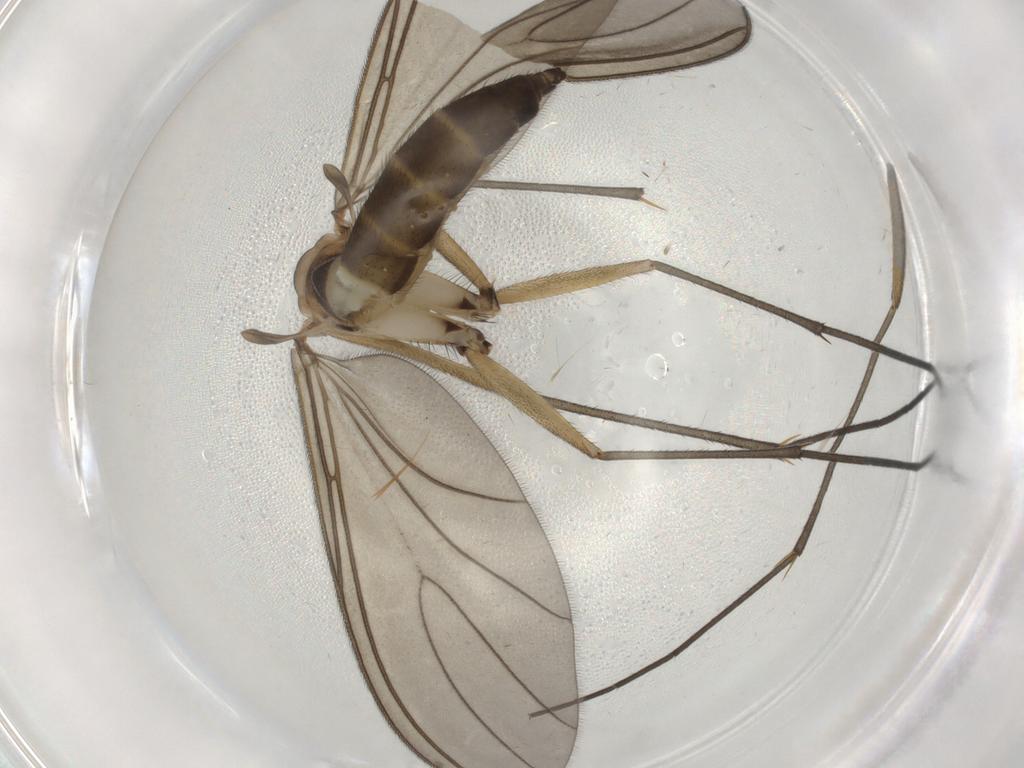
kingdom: Animalia
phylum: Arthropoda
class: Insecta
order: Diptera
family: Sciaridae
